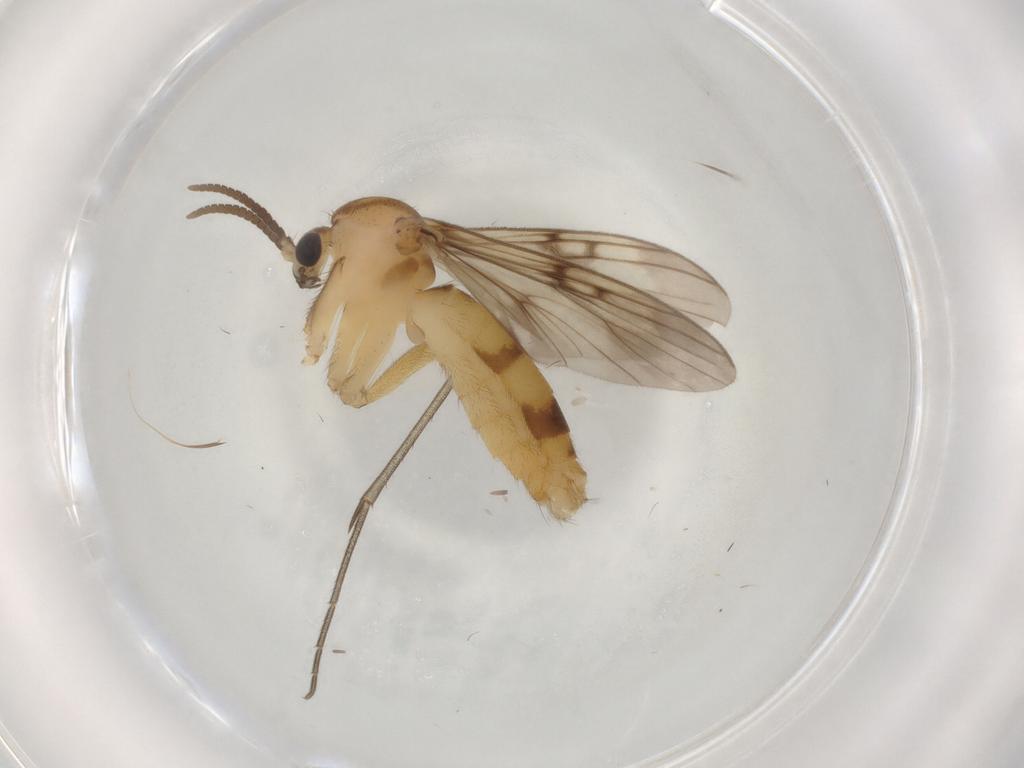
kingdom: Animalia
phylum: Arthropoda
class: Insecta
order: Diptera
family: Mycetophilidae
